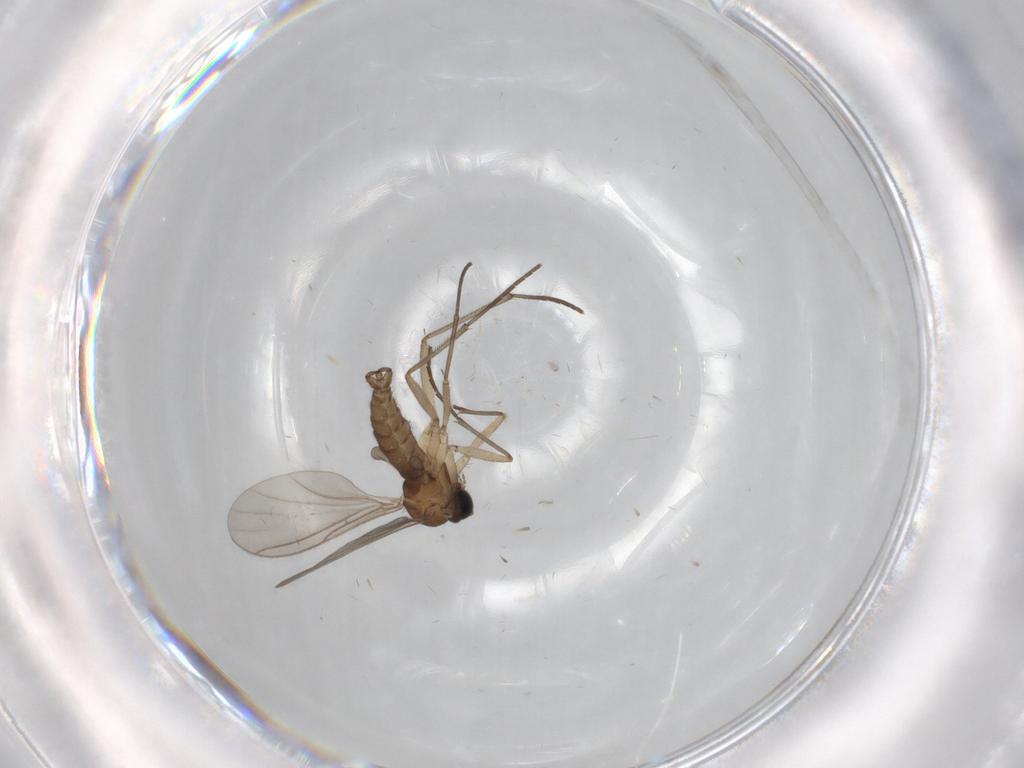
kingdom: Animalia
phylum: Arthropoda
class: Insecta
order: Diptera
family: Sciaridae
